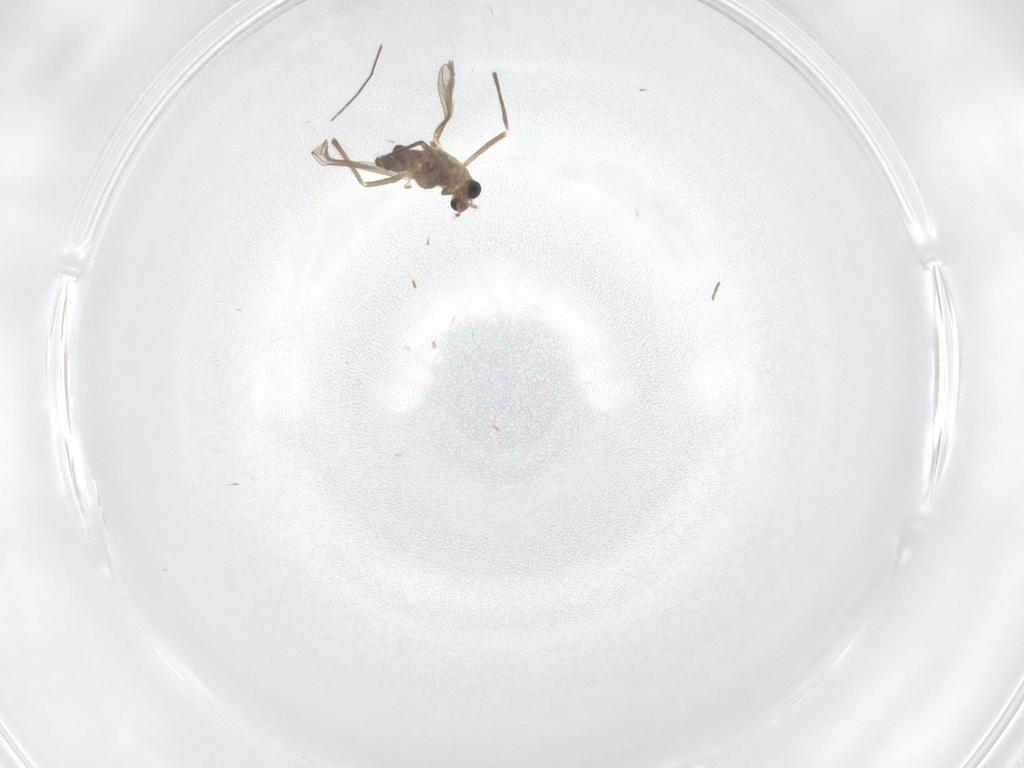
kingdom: Animalia
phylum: Arthropoda
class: Insecta
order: Diptera
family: Chironomidae
